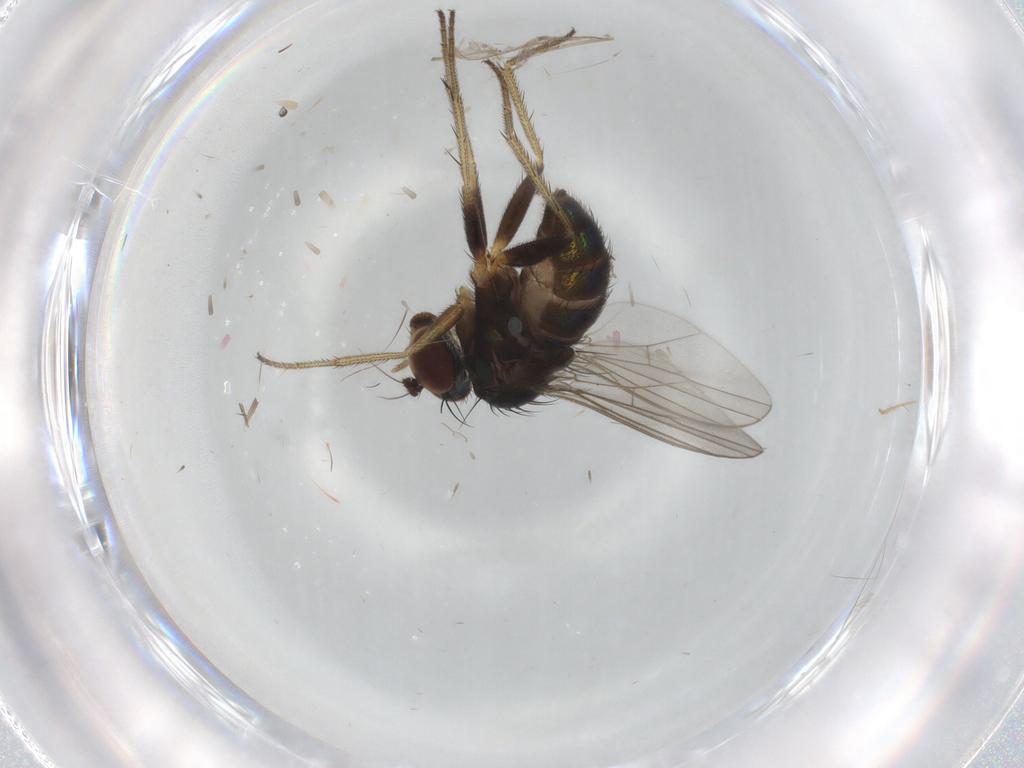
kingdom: Animalia
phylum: Arthropoda
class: Insecta
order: Diptera
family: Dolichopodidae
